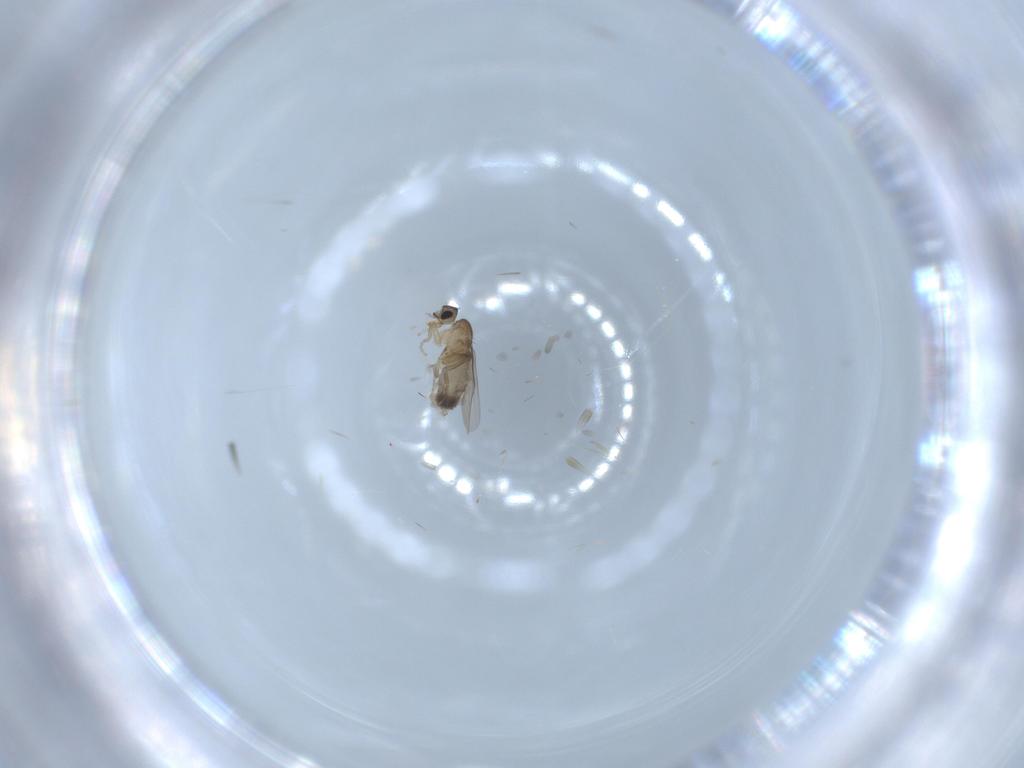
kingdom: Animalia
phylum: Arthropoda
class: Insecta
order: Diptera
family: Phoridae
